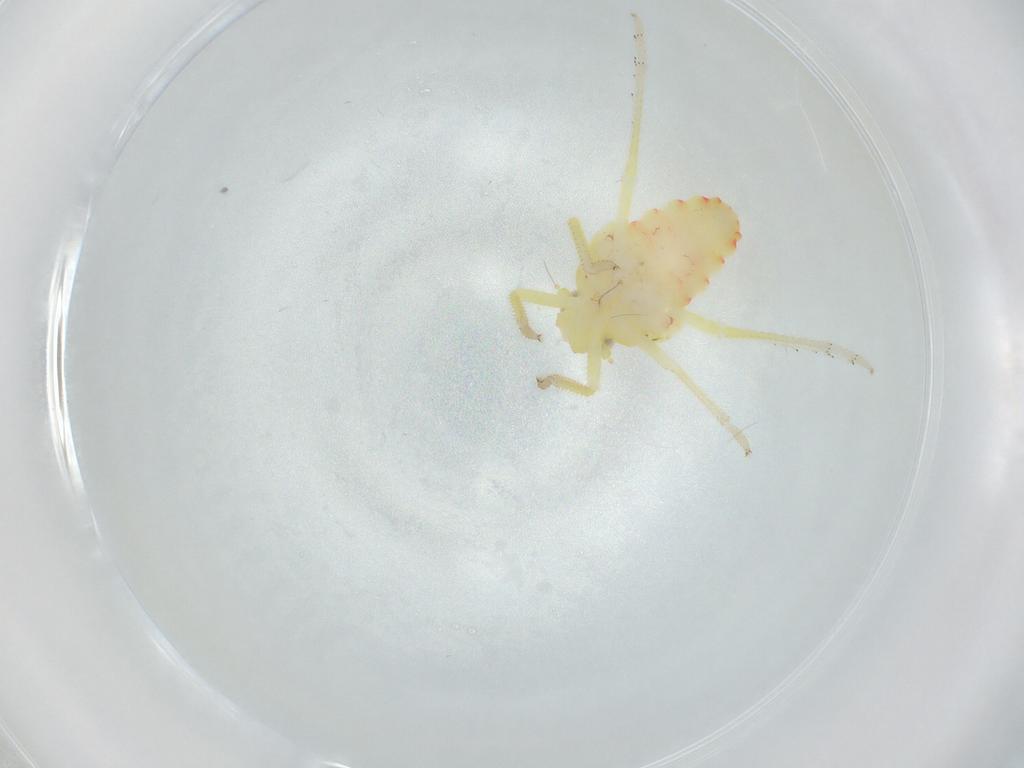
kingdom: Animalia
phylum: Arthropoda
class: Insecta
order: Hemiptera
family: Tropiduchidae
